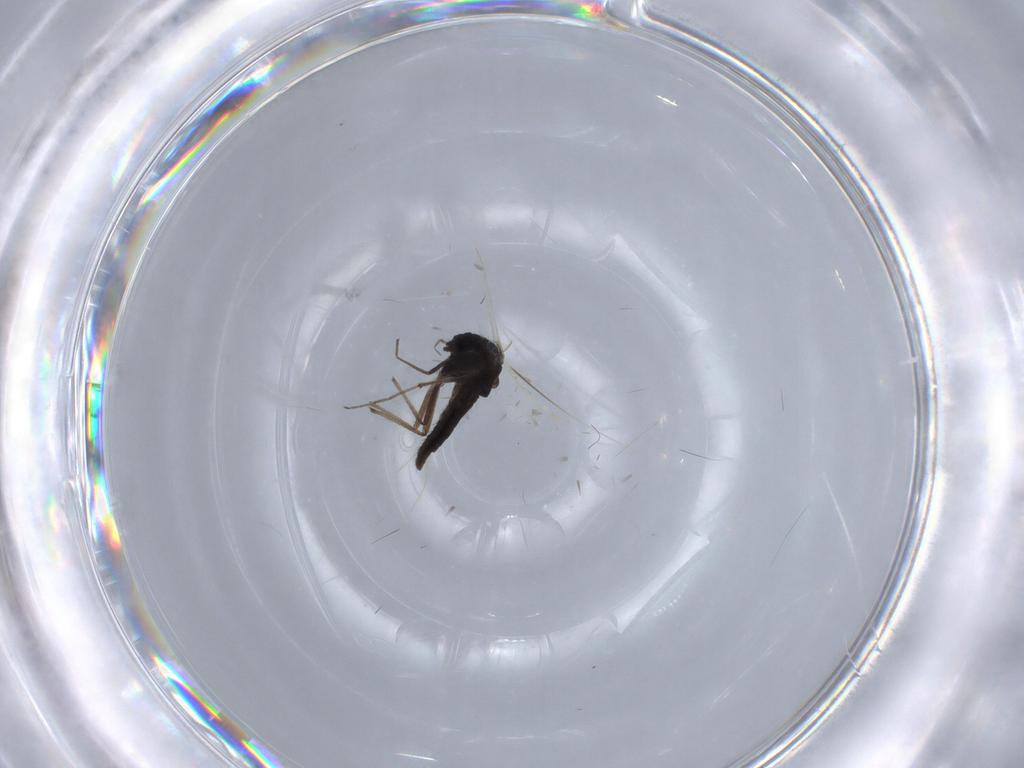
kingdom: Animalia
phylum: Arthropoda
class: Insecta
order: Diptera
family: Chironomidae
